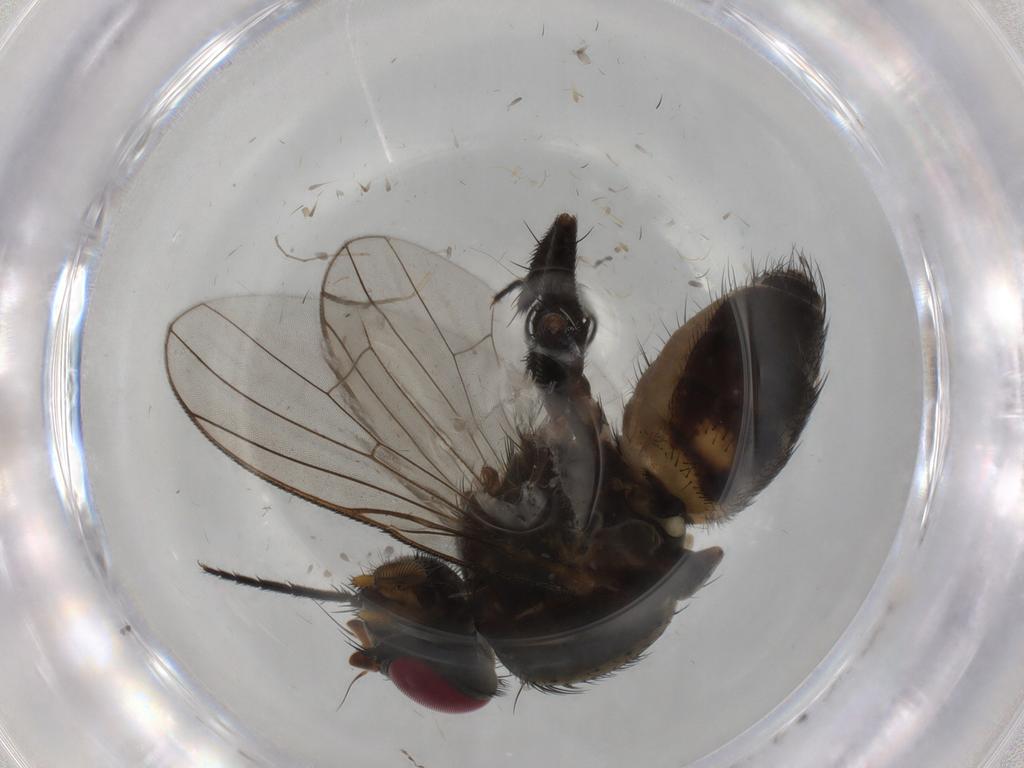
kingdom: Animalia
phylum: Arthropoda
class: Insecta
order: Diptera
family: Fannia
